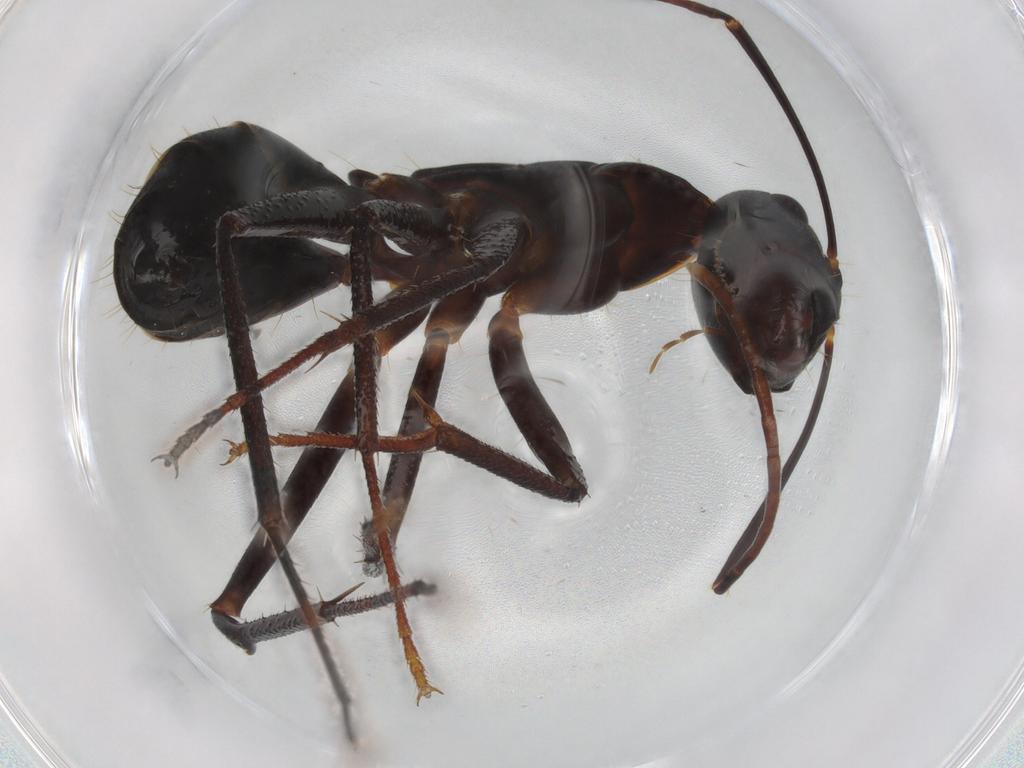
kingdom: Animalia
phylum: Arthropoda
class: Insecta
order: Hymenoptera
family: Formicidae
